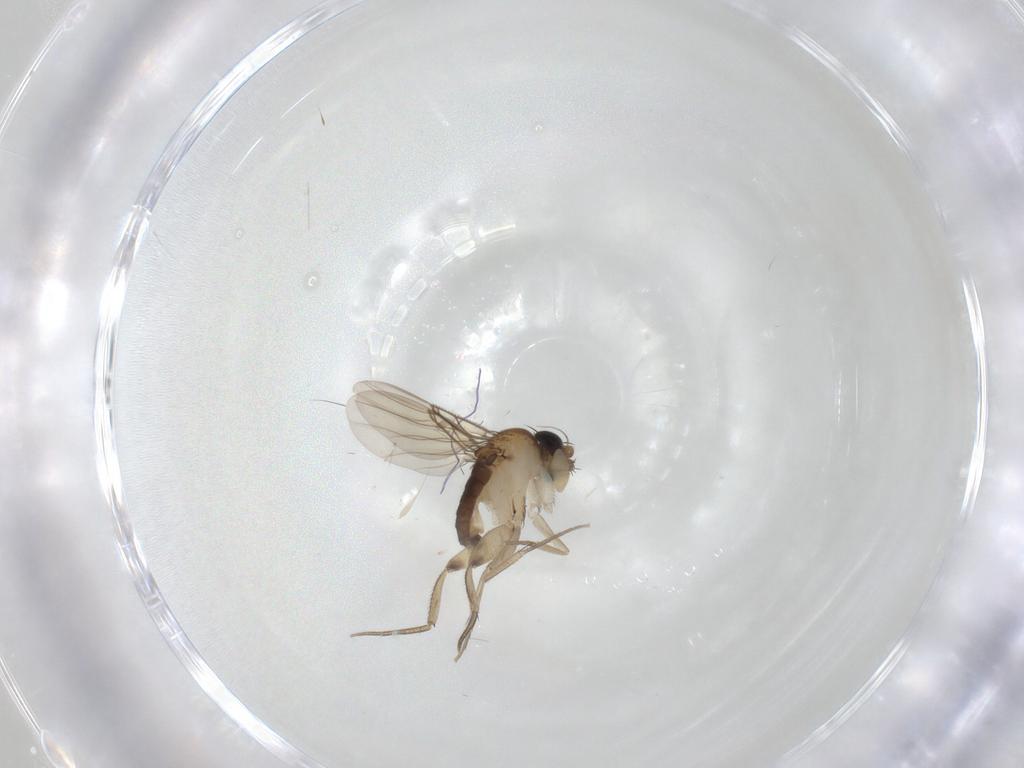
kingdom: Animalia
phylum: Arthropoda
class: Insecta
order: Diptera
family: Phoridae
